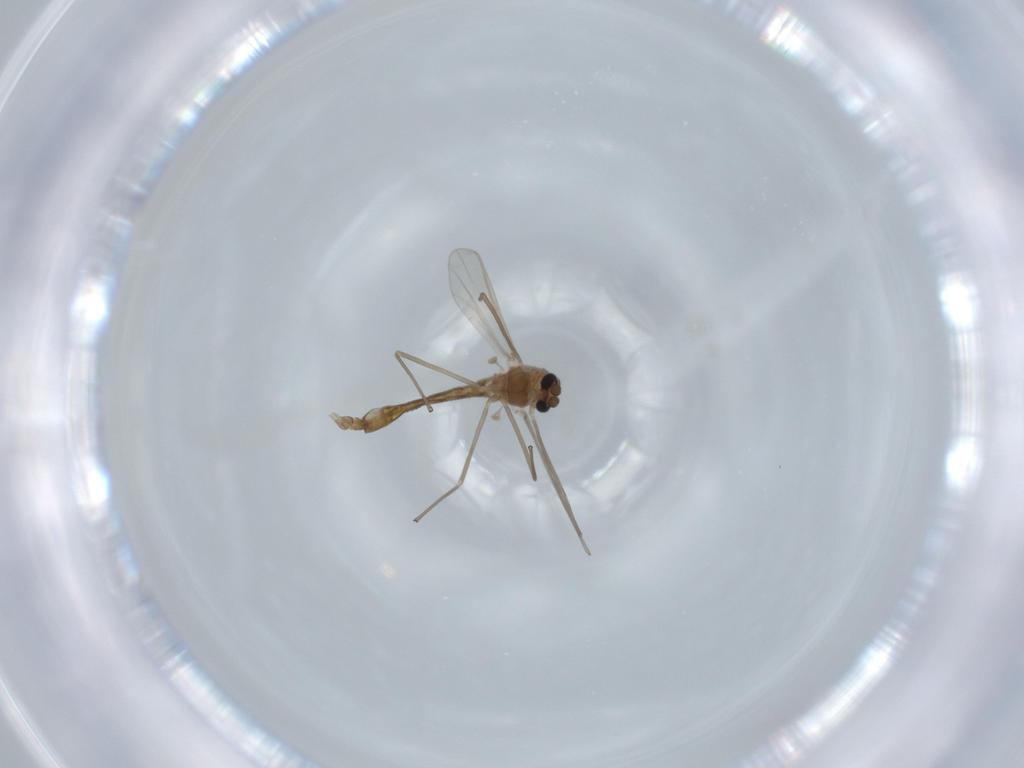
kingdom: Animalia
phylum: Arthropoda
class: Insecta
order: Diptera
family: Chironomidae
